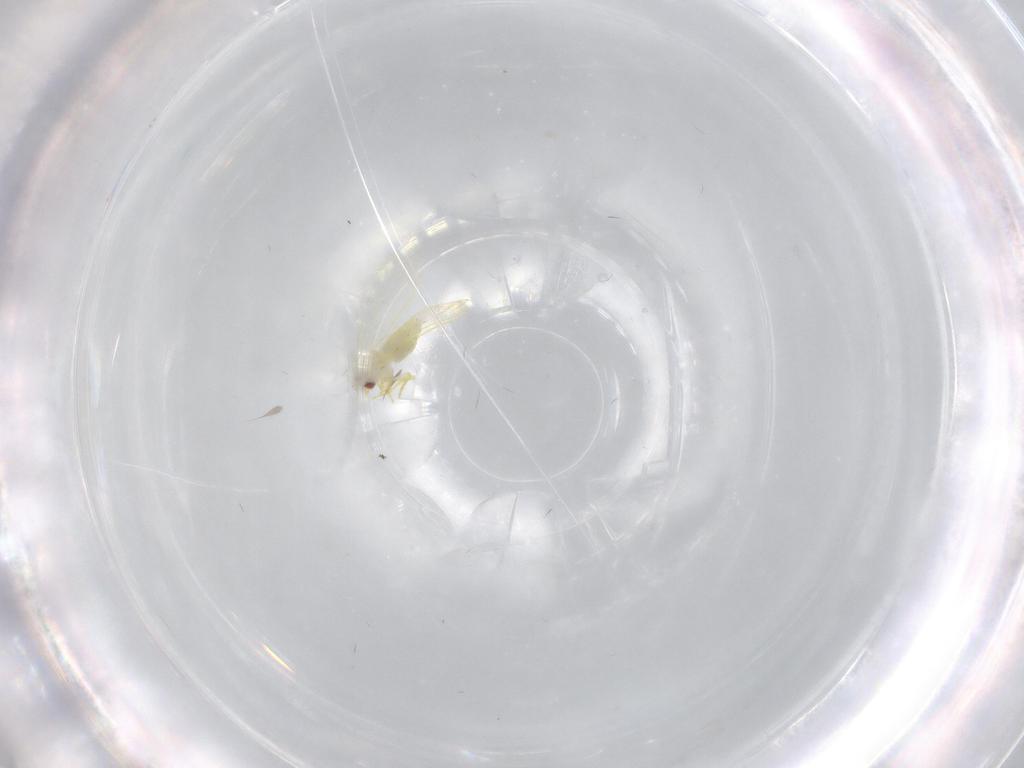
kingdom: Animalia
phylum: Arthropoda
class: Insecta
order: Hemiptera
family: Aleyrodidae
